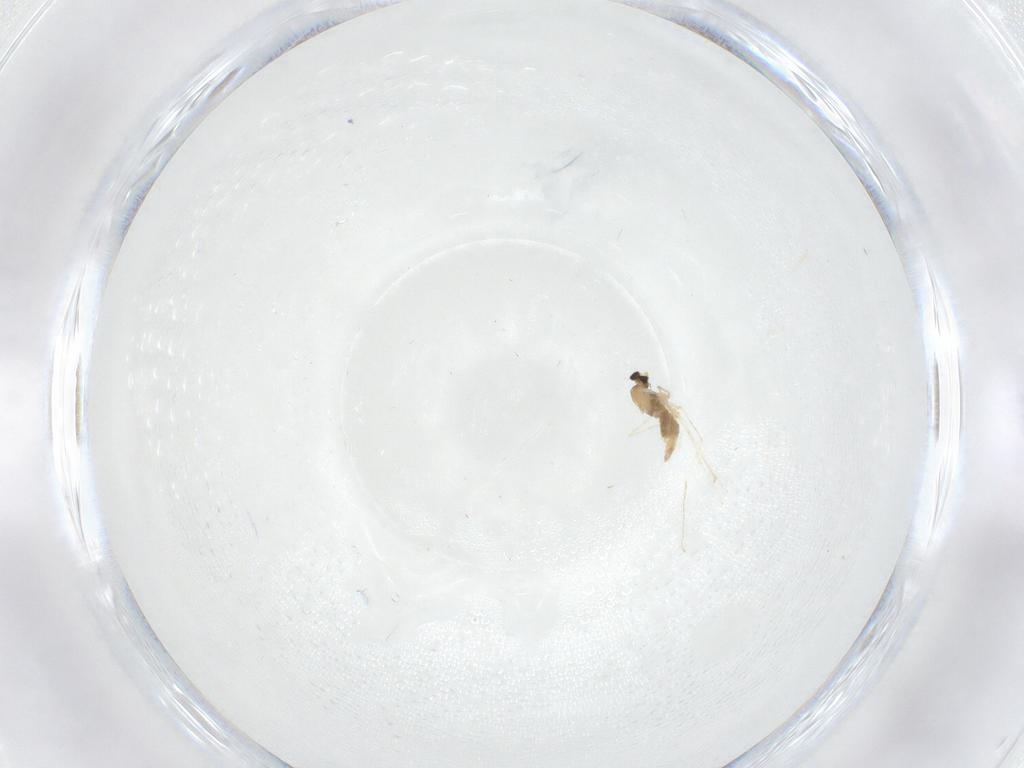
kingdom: Animalia
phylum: Arthropoda
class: Insecta
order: Diptera
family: Cecidomyiidae
